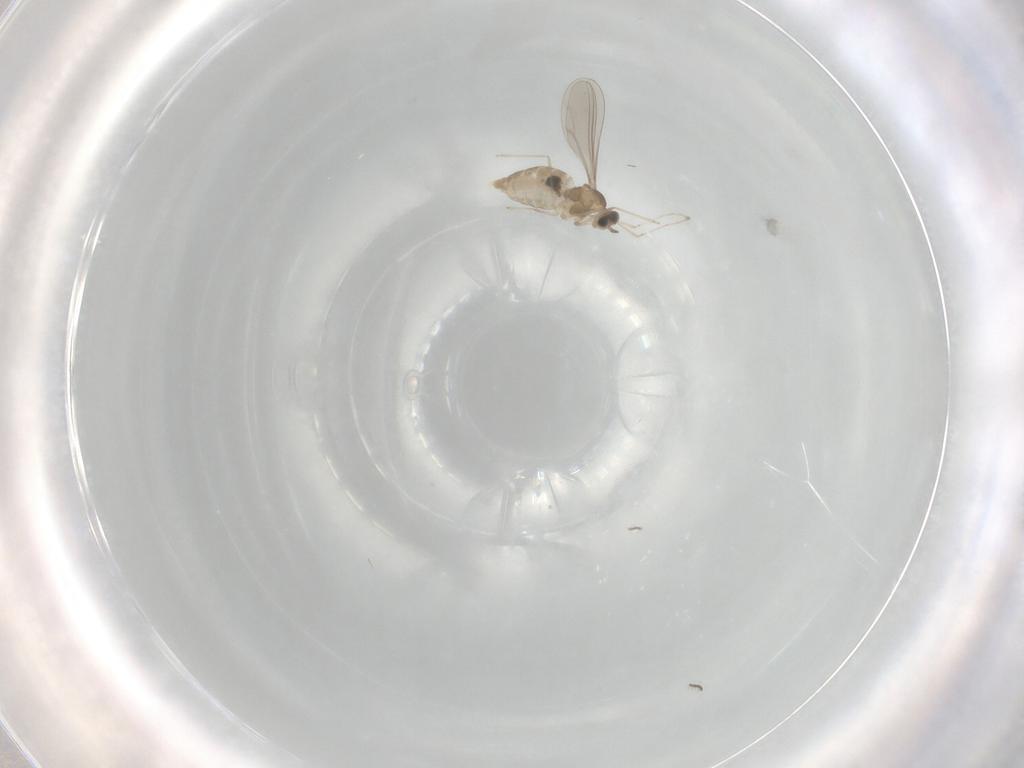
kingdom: Animalia
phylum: Arthropoda
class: Insecta
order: Diptera
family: Cecidomyiidae
